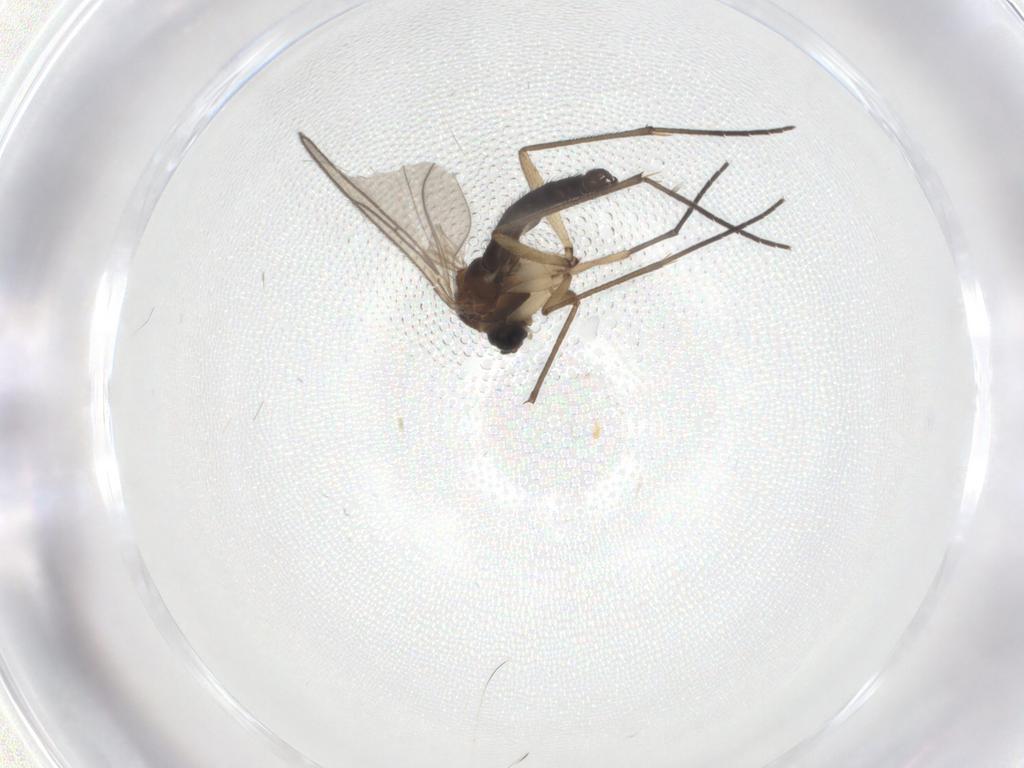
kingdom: Animalia
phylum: Arthropoda
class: Insecta
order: Diptera
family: Sciaridae
